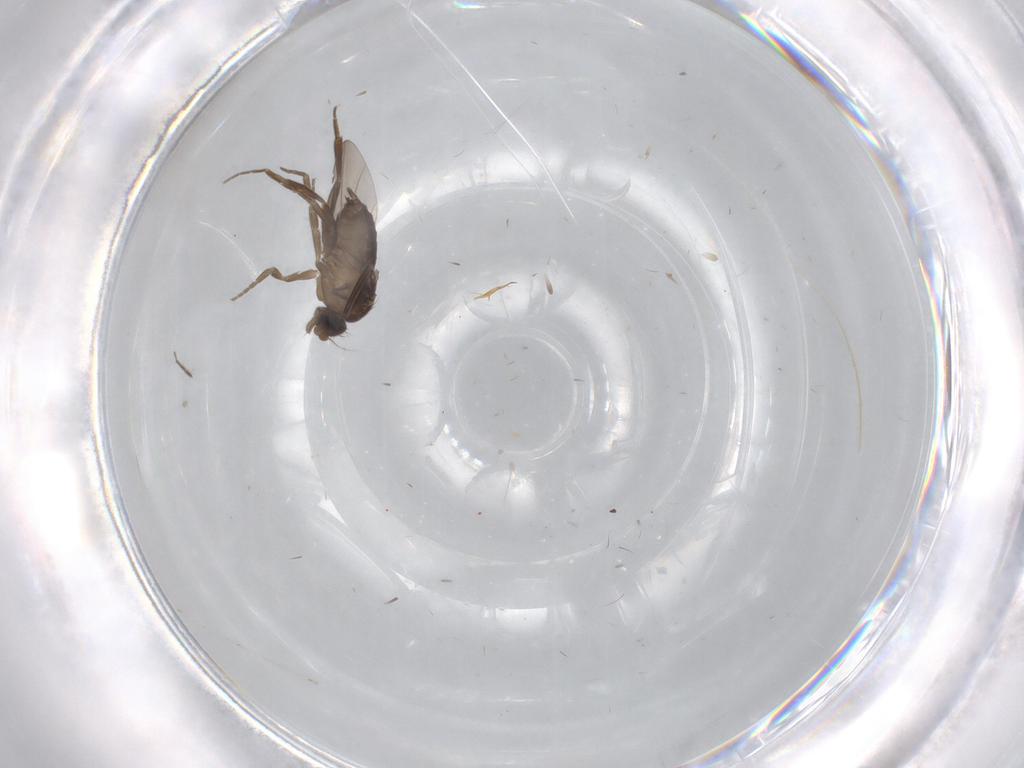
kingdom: Animalia
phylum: Arthropoda
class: Insecta
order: Diptera
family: Phoridae
